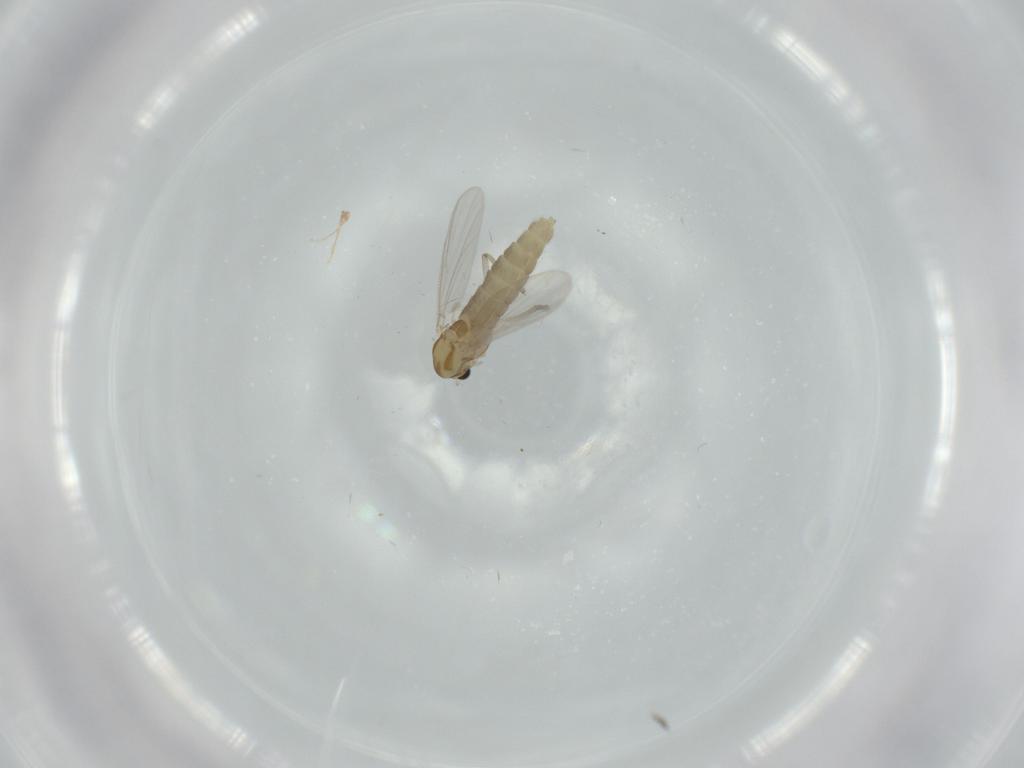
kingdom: Animalia
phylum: Arthropoda
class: Insecta
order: Diptera
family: Chironomidae
